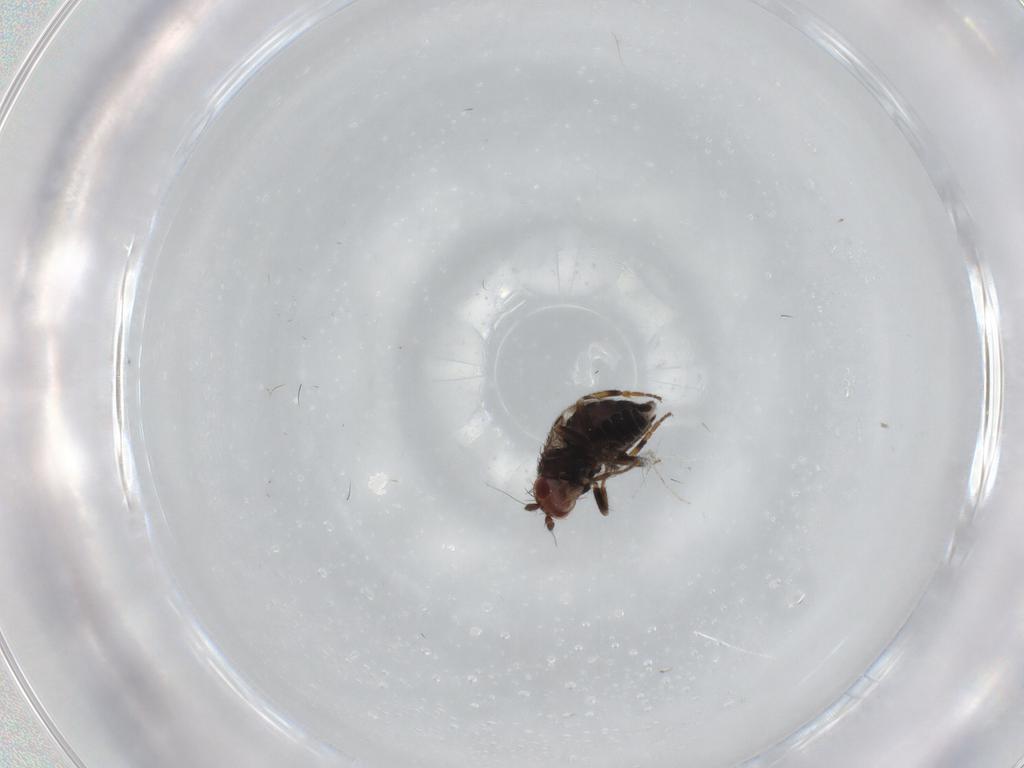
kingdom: Animalia
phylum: Arthropoda
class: Insecta
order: Diptera
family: Sphaeroceridae
